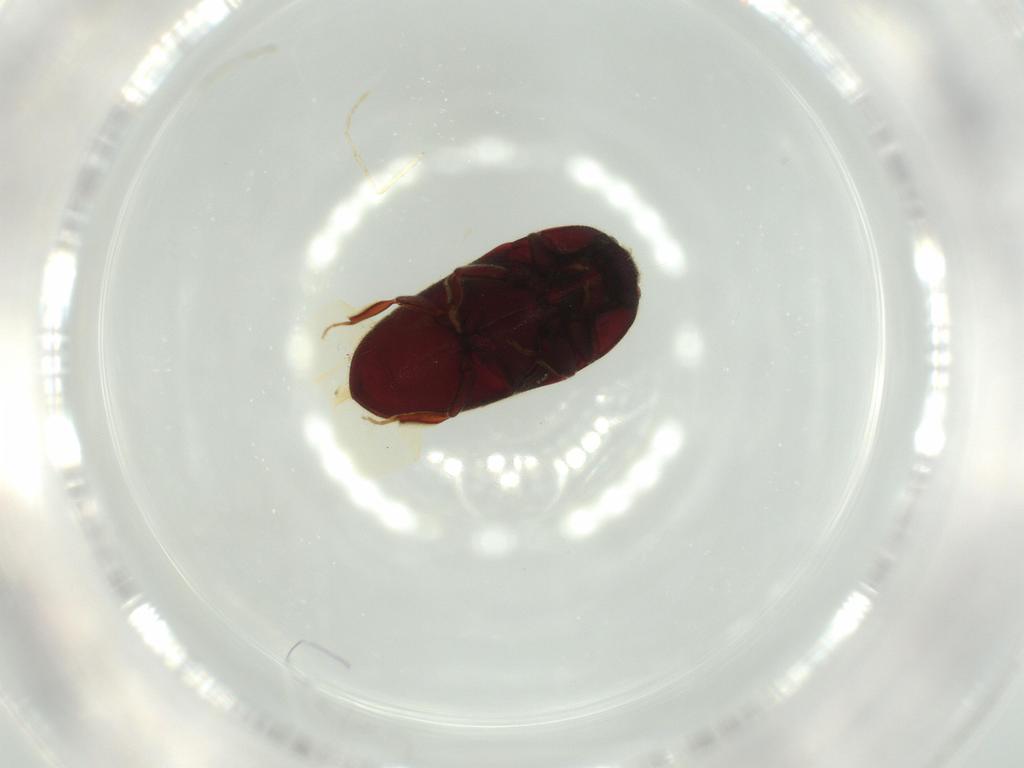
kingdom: Animalia
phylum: Arthropoda
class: Insecta
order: Coleoptera
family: Throscidae
